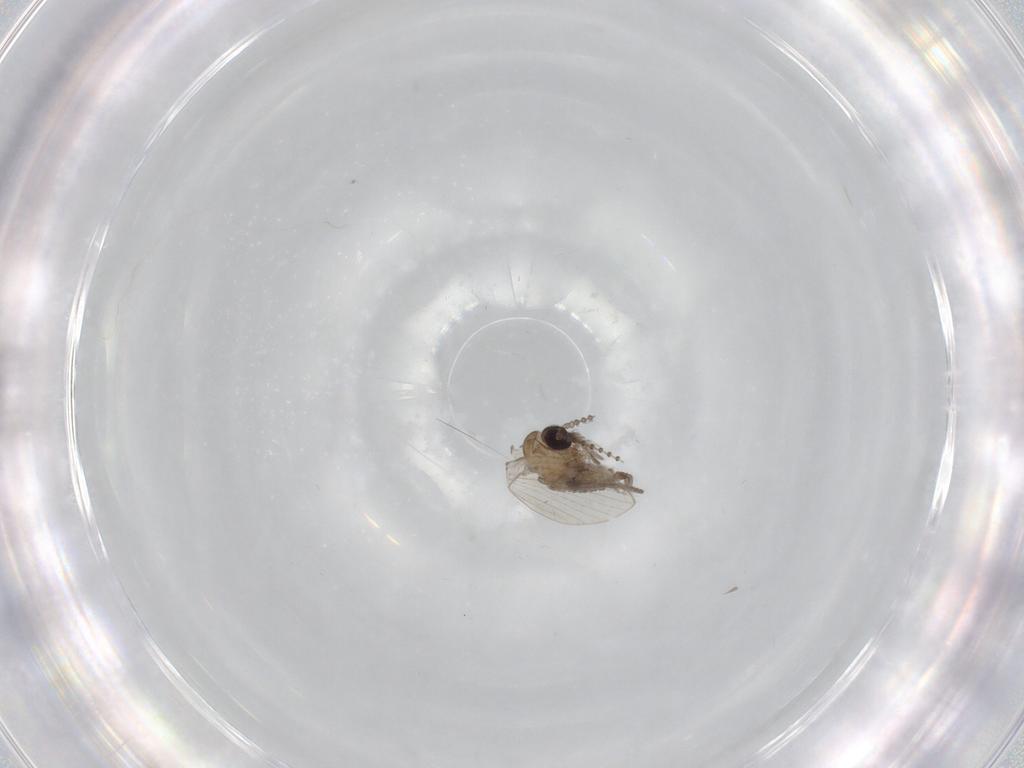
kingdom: Animalia
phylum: Arthropoda
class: Insecta
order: Diptera
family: Psychodidae
